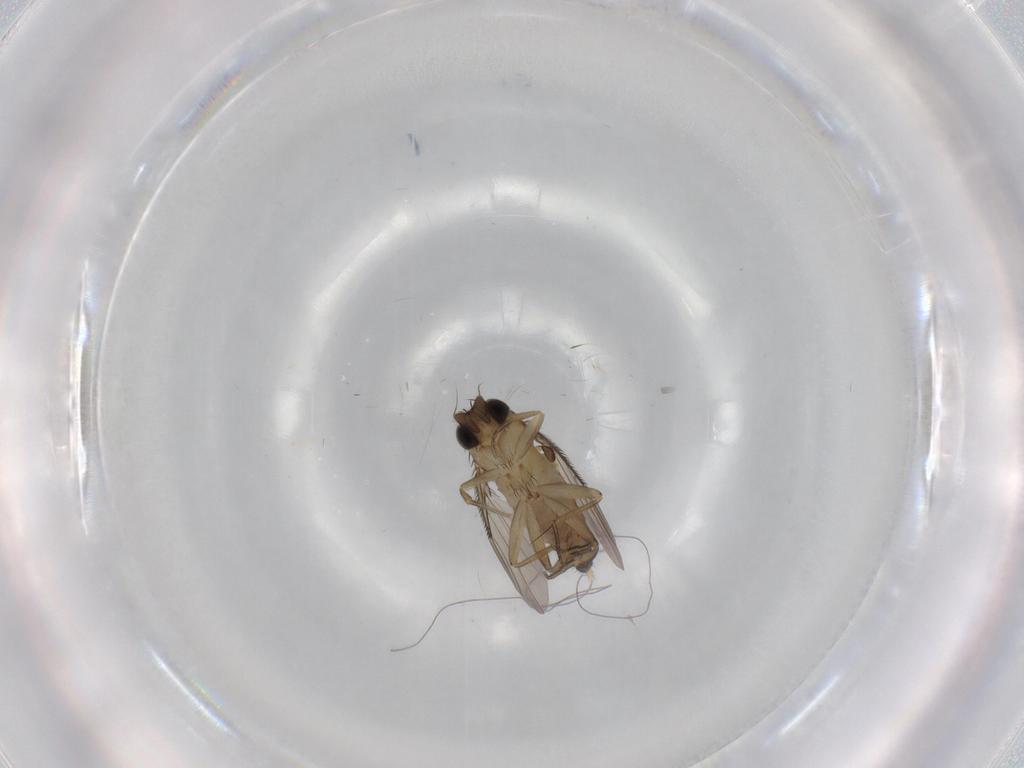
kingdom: Animalia
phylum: Arthropoda
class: Insecta
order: Diptera
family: Phoridae
